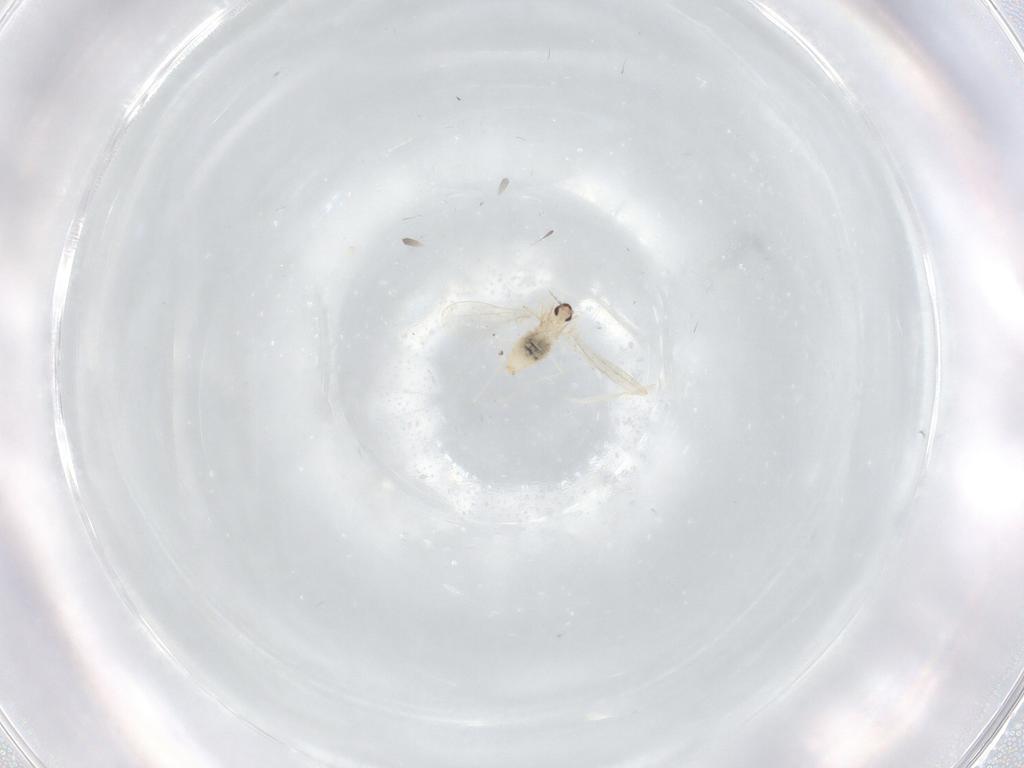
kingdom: Animalia
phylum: Arthropoda
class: Insecta
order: Diptera
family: Cecidomyiidae
